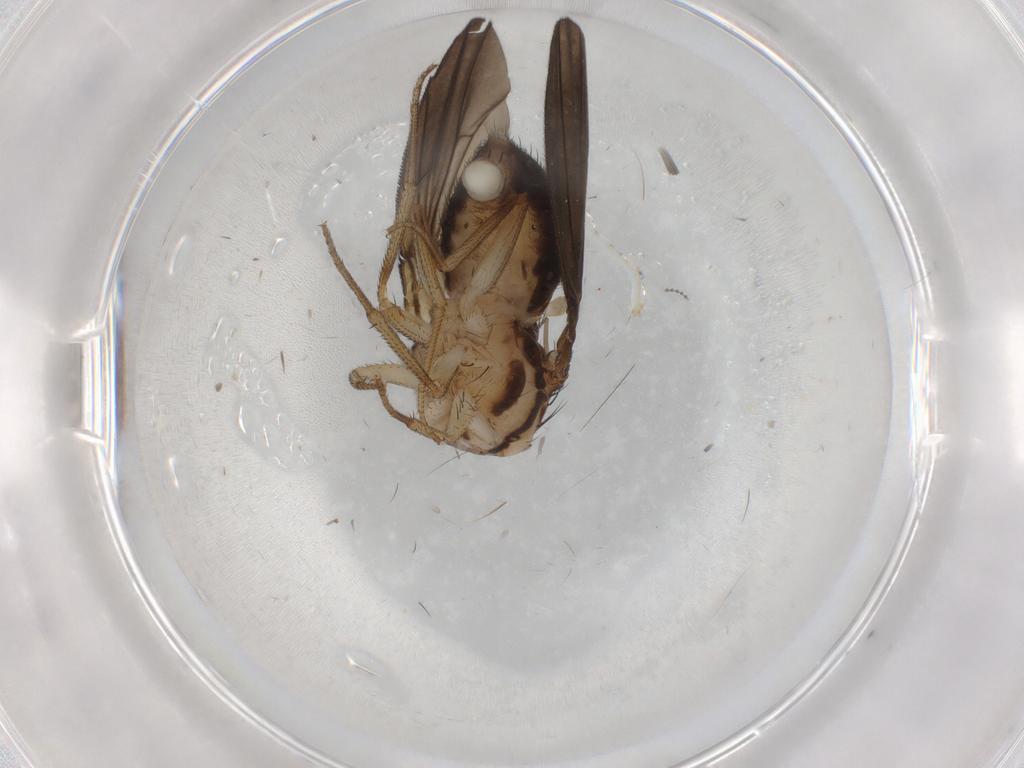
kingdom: Animalia
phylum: Arthropoda
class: Insecta
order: Diptera
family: Drosophilidae
